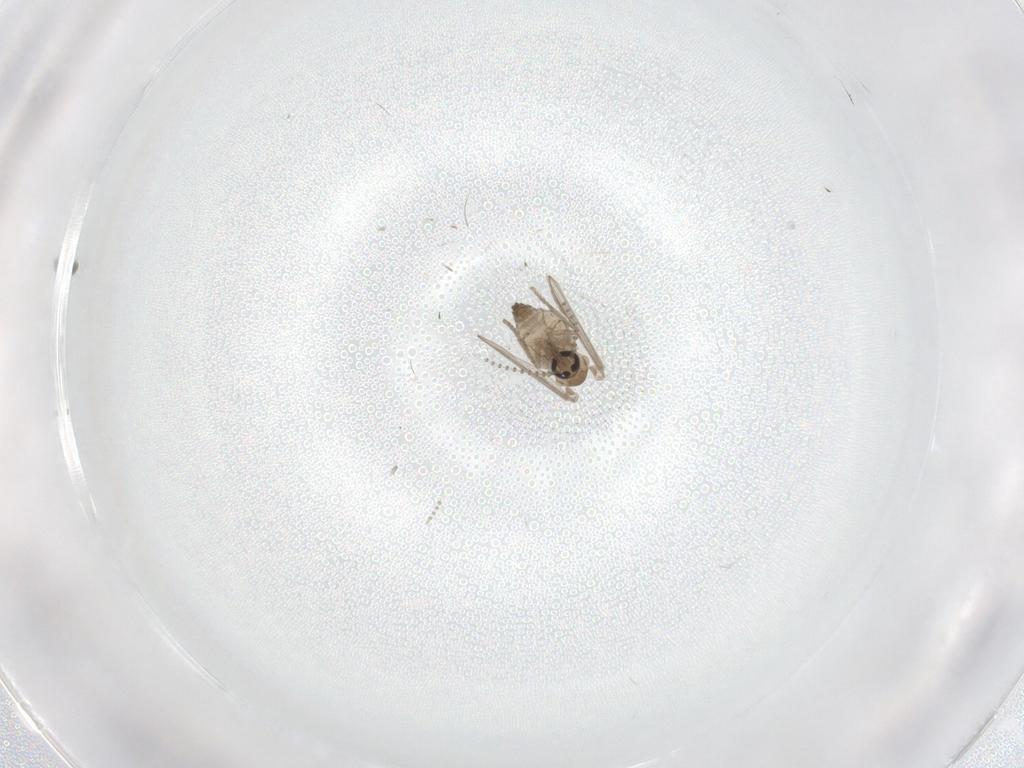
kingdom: Animalia
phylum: Arthropoda
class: Insecta
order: Diptera
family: Psychodidae
